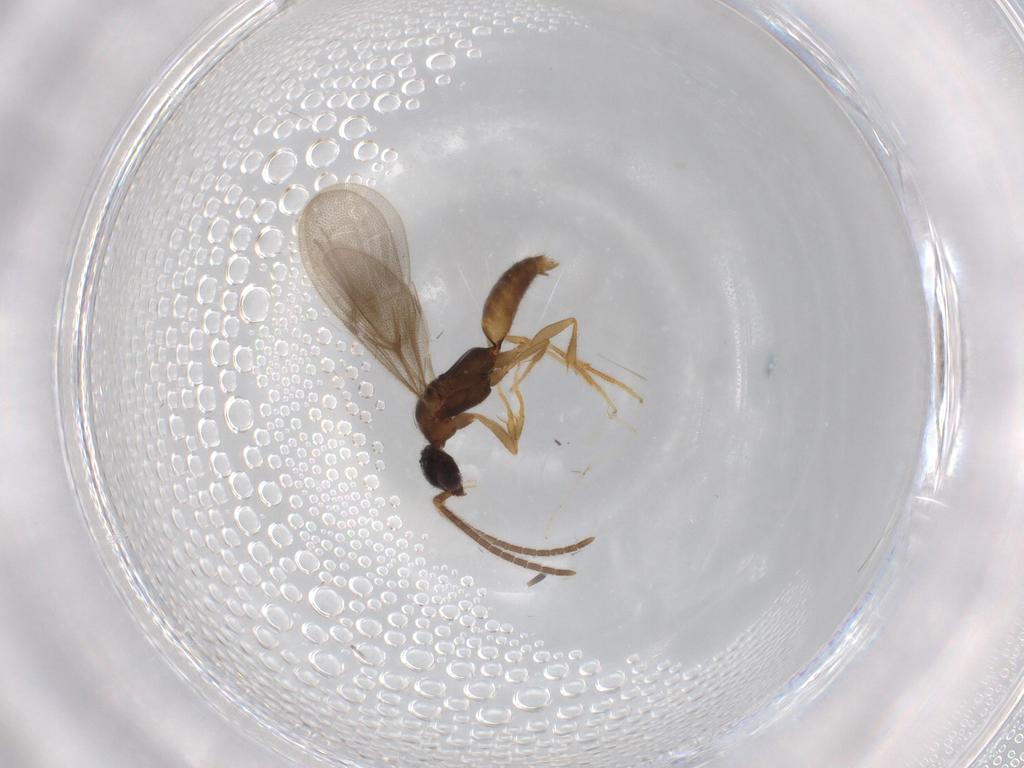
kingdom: Animalia
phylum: Arthropoda
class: Insecta
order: Hymenoptera
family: Bethylidae
